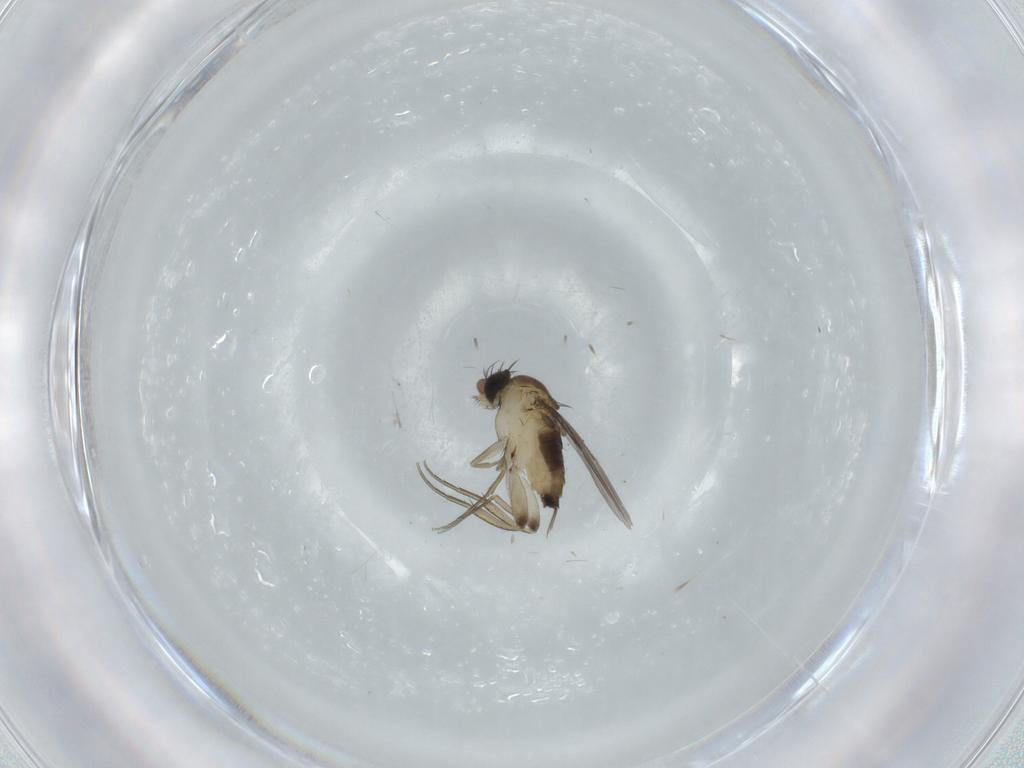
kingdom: Animalia
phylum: Arthropoda
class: Insecta
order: Diptera
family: Phoridae
